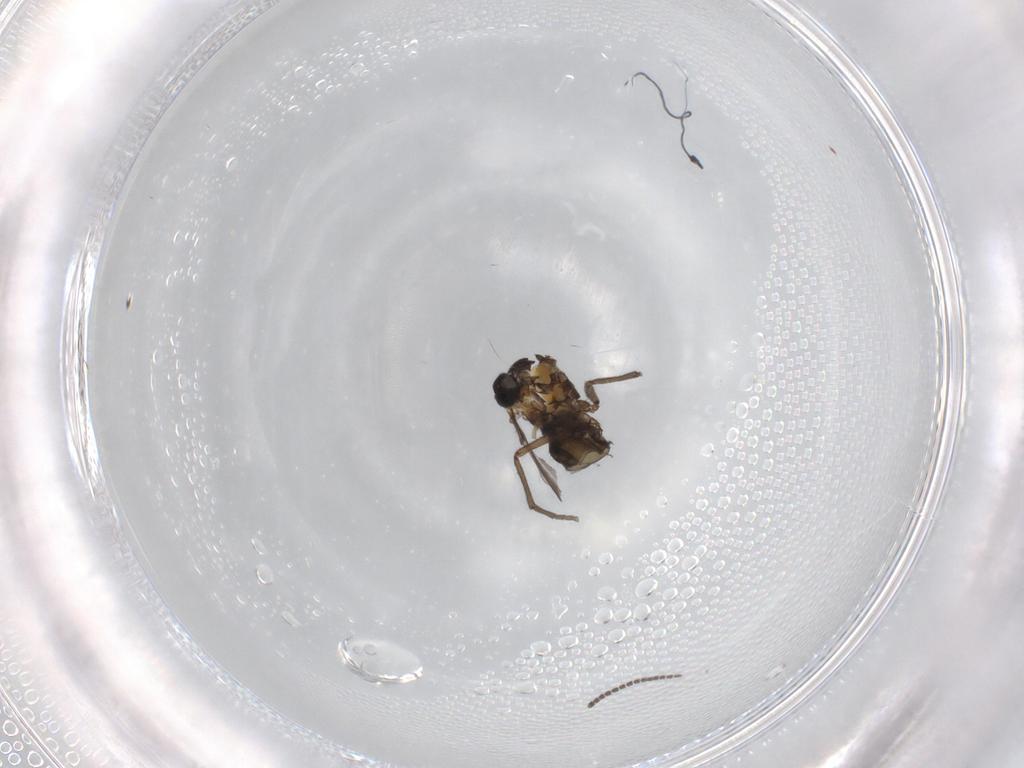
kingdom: Animalia
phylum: Arthropoda
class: Insecta
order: Diptera
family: Sciaridae
